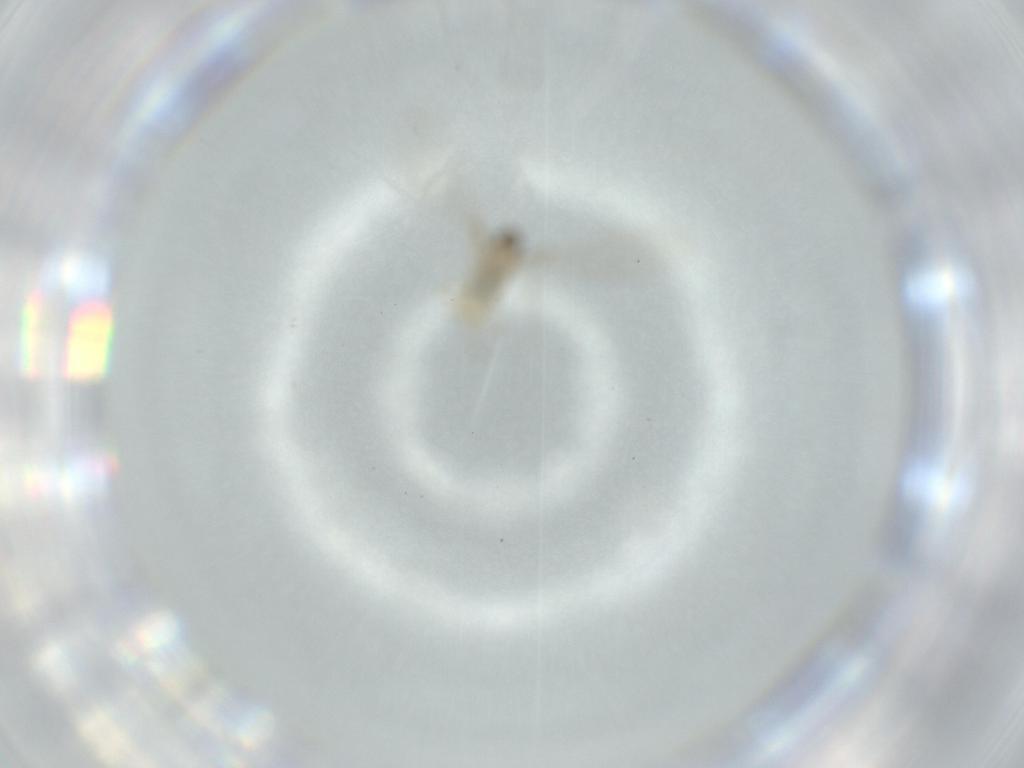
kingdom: Animalia
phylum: Arthropoda
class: Insecta
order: Diptera
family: Cecidomyiidae
